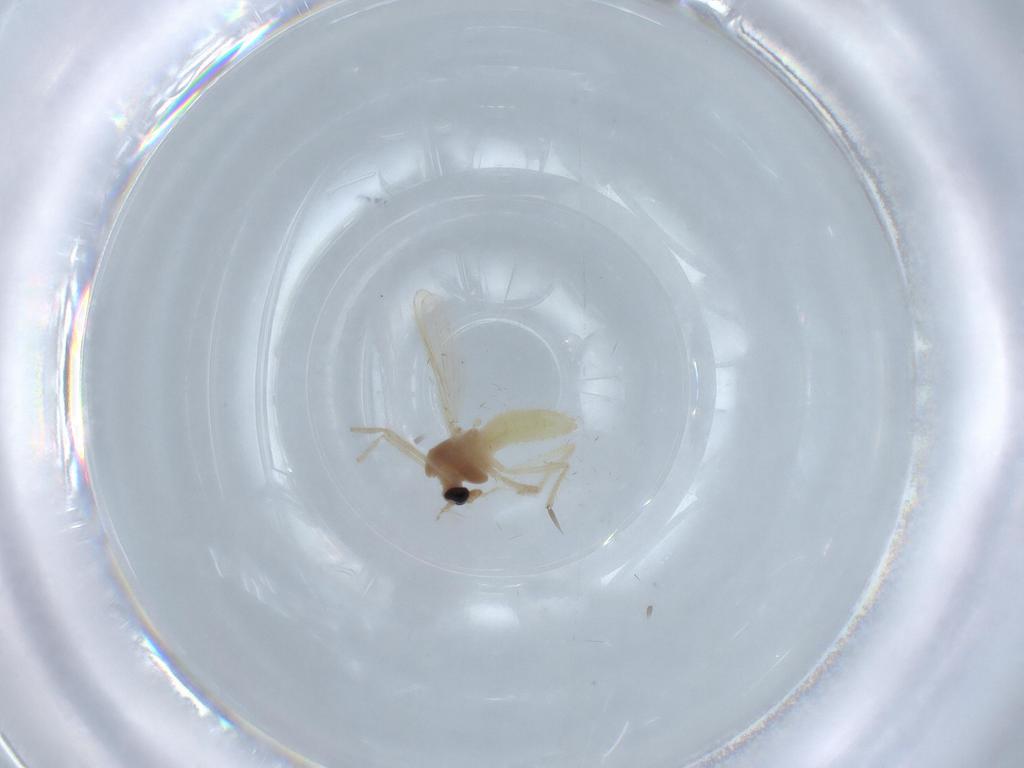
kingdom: Animalia
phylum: Arthropoda
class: Insecta
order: Diptera
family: Chironomidae
